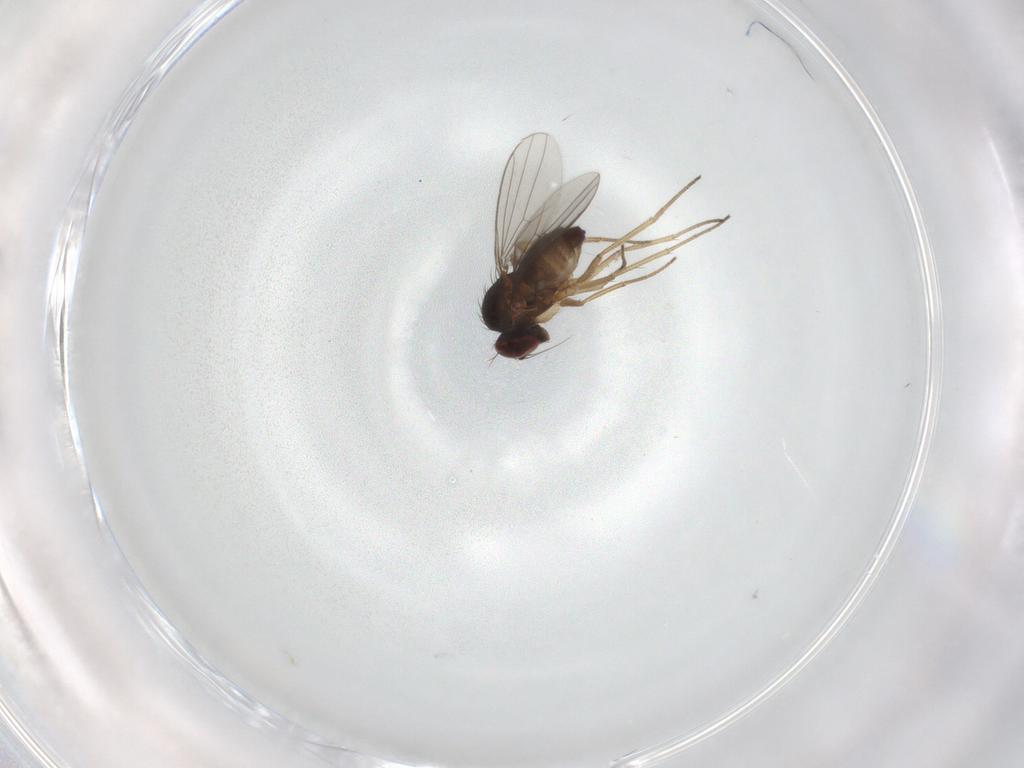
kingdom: Animalia
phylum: Arthropoda
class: Insecta
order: Diptera
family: Dolichopodidae
